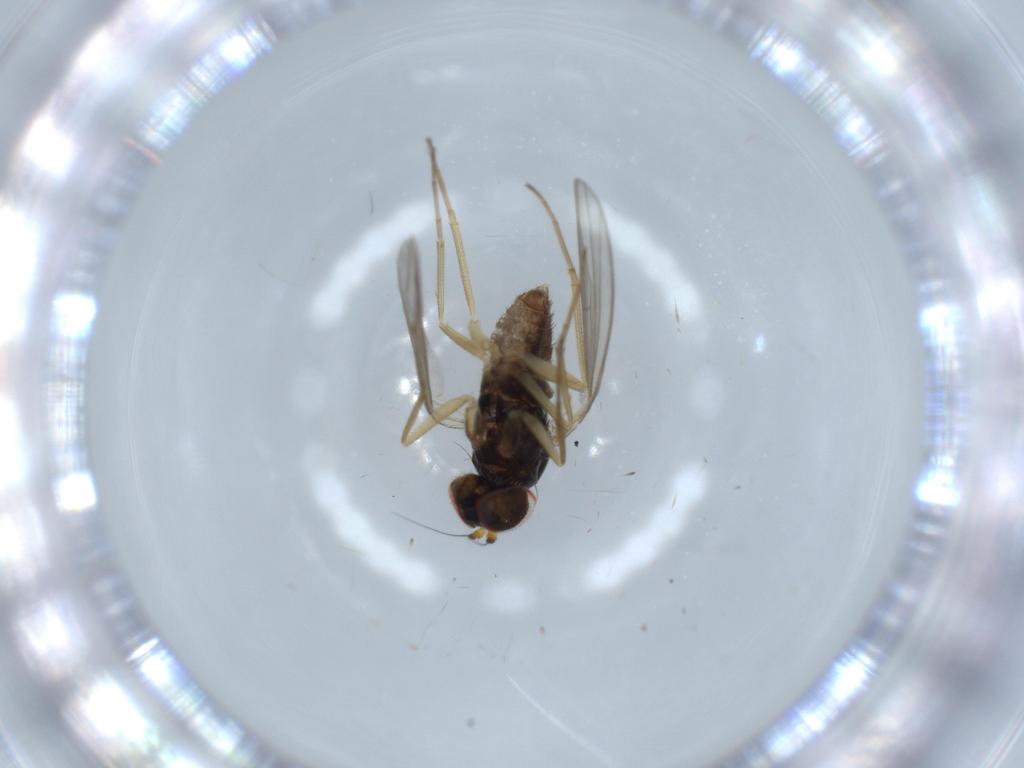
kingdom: Animalia
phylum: Arthropoda
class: Insecta
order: Diptera
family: Dolichopodidae
